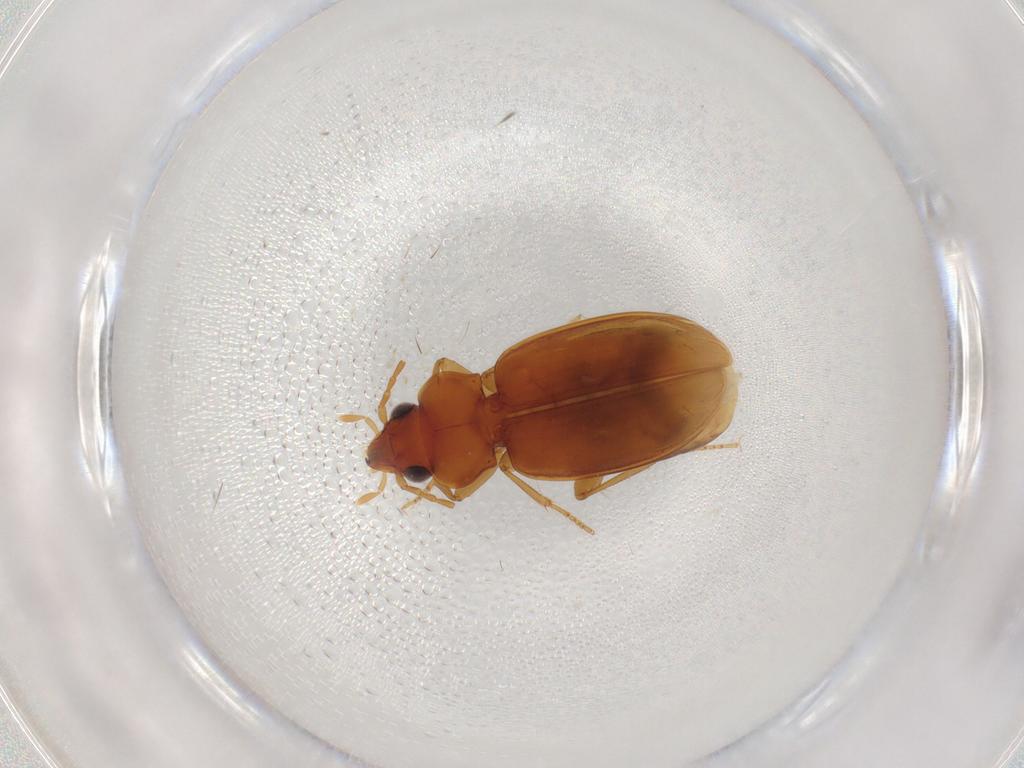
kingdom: Animalia
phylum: Arthropoda
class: Insecta
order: Coleoptera
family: Carabidae
